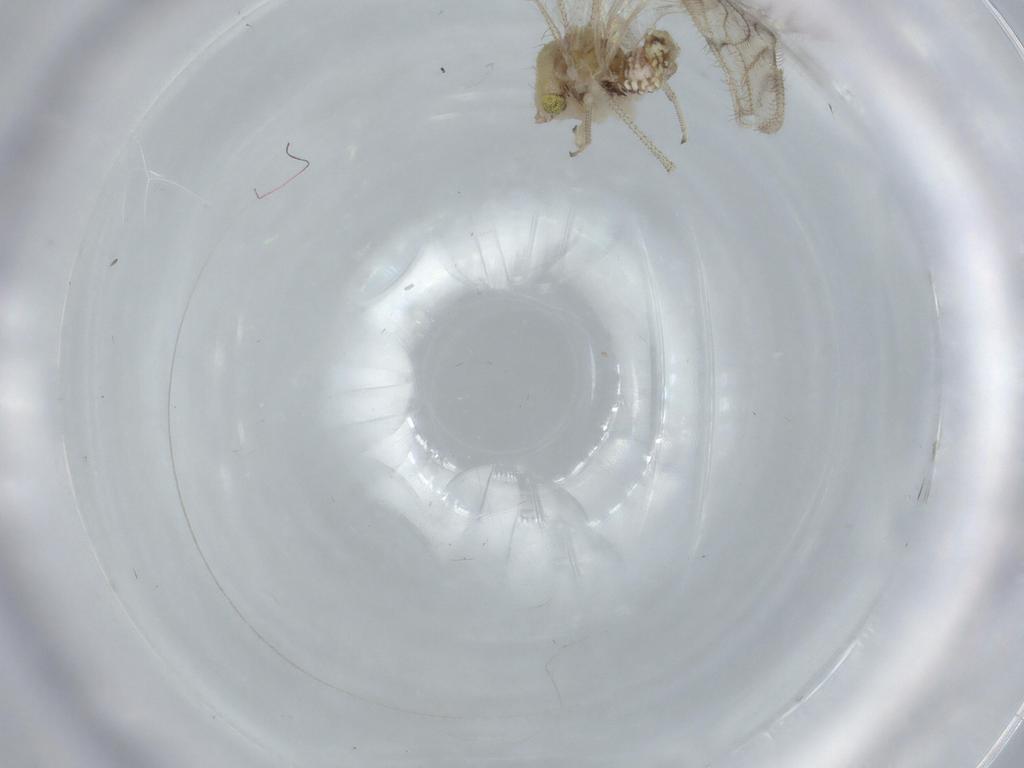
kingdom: Animalia
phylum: Arthropoda
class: Insecta
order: Psocodea
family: Pseudocaeciliidae
